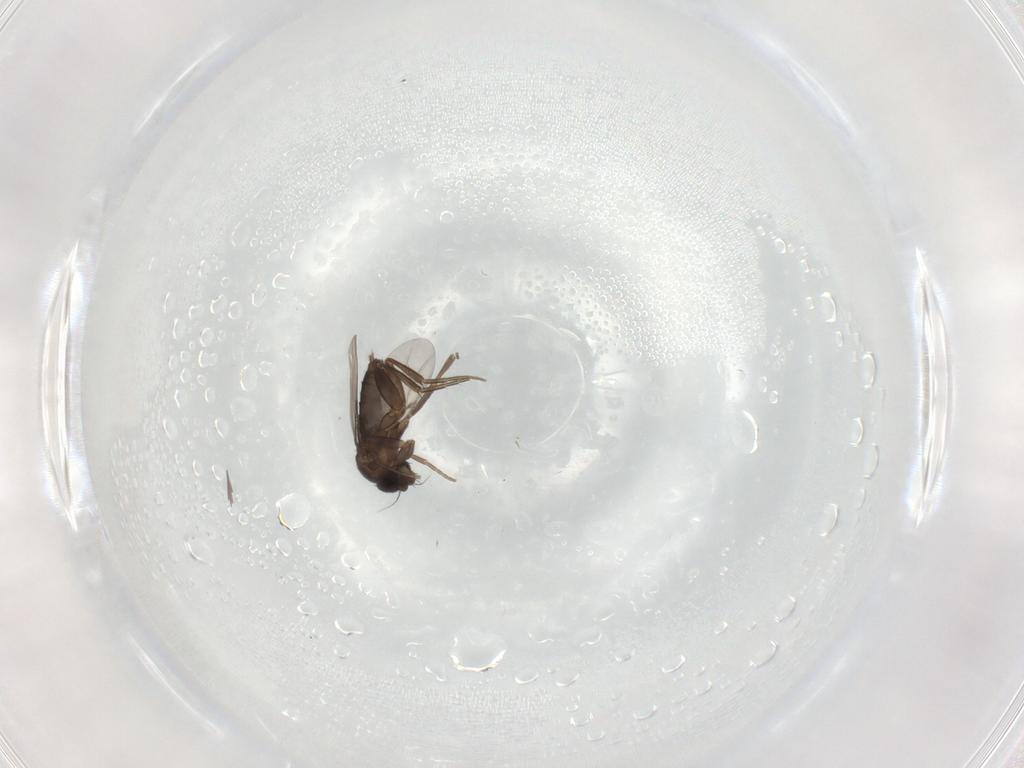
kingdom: Animalia
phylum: Arthropoda
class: Insecta
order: Diptera
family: Phoridae
